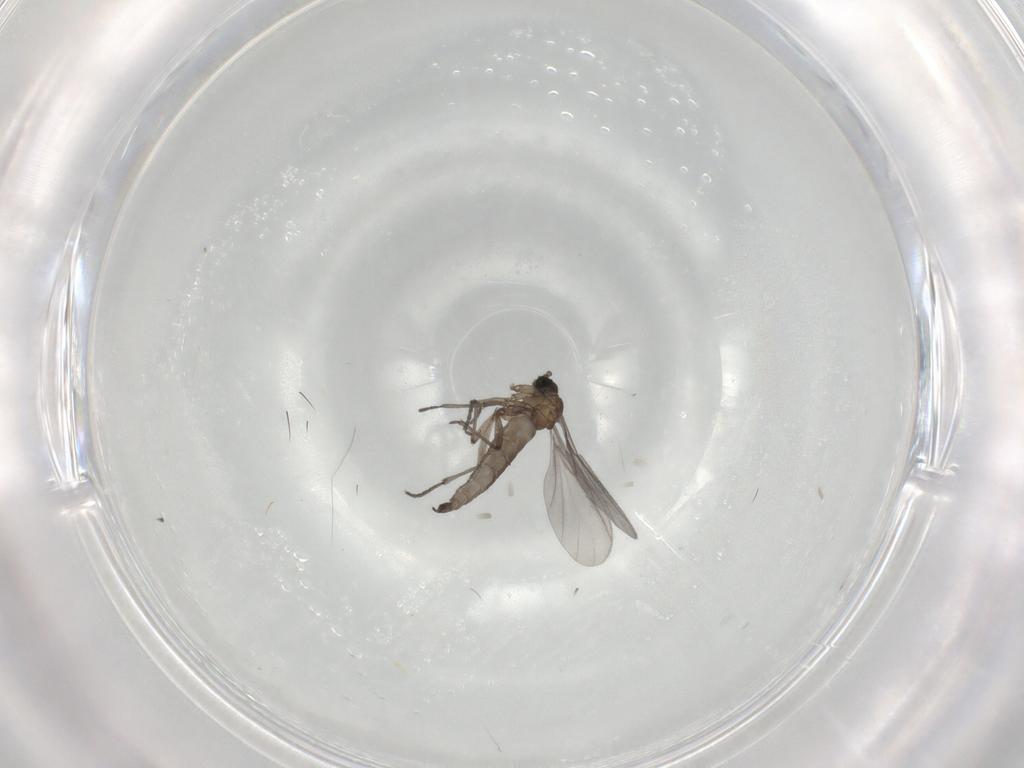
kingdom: Animalia
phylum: Arthropoda
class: Insecta
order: Diptera
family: Sciaridae
